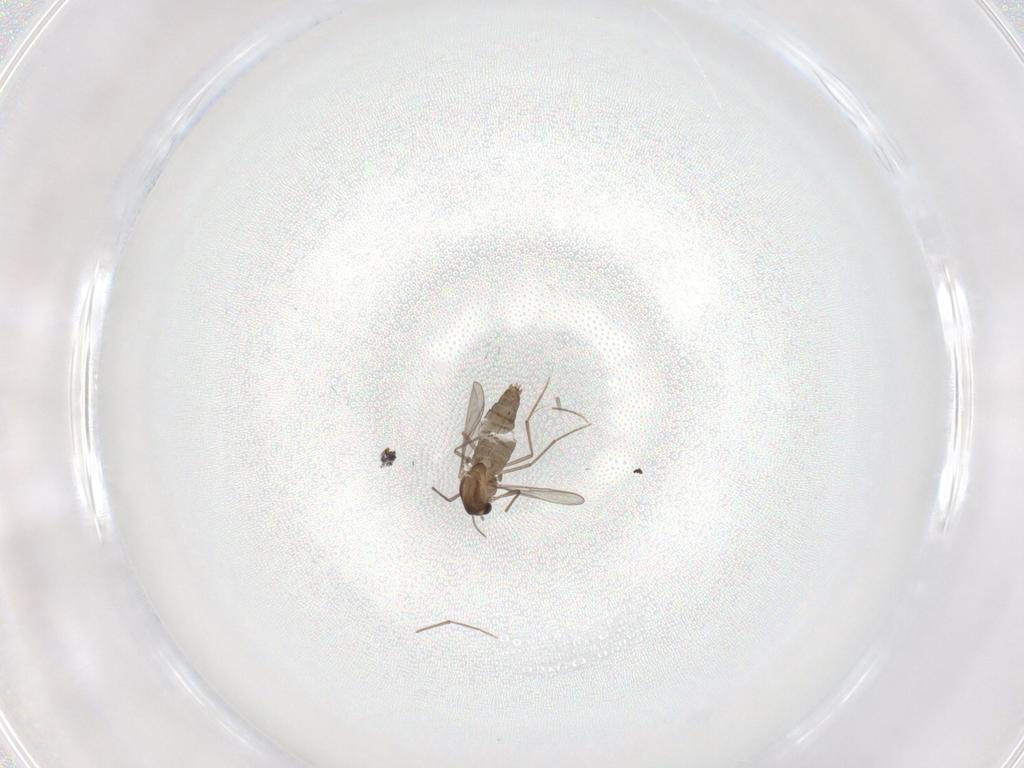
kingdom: Animalia
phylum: Arthropoda
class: Insecta
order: Diptera
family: Chironomidae
